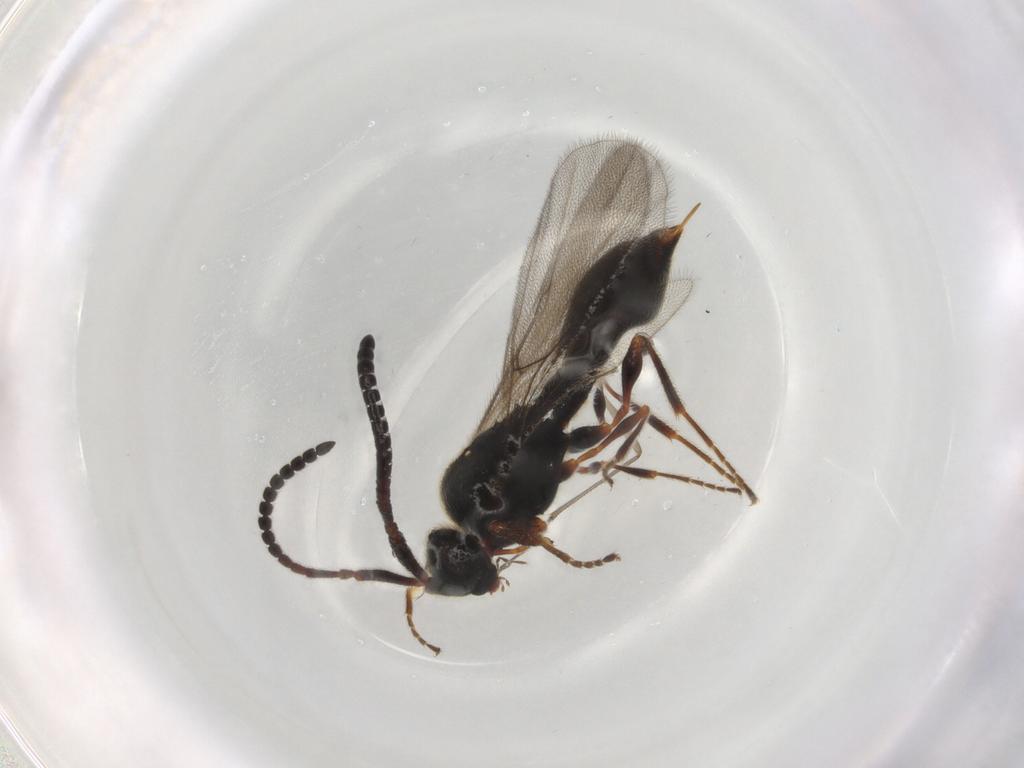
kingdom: Animalia
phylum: Arthropoda
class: Insecta
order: Hymenoptera
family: Diapriidae
